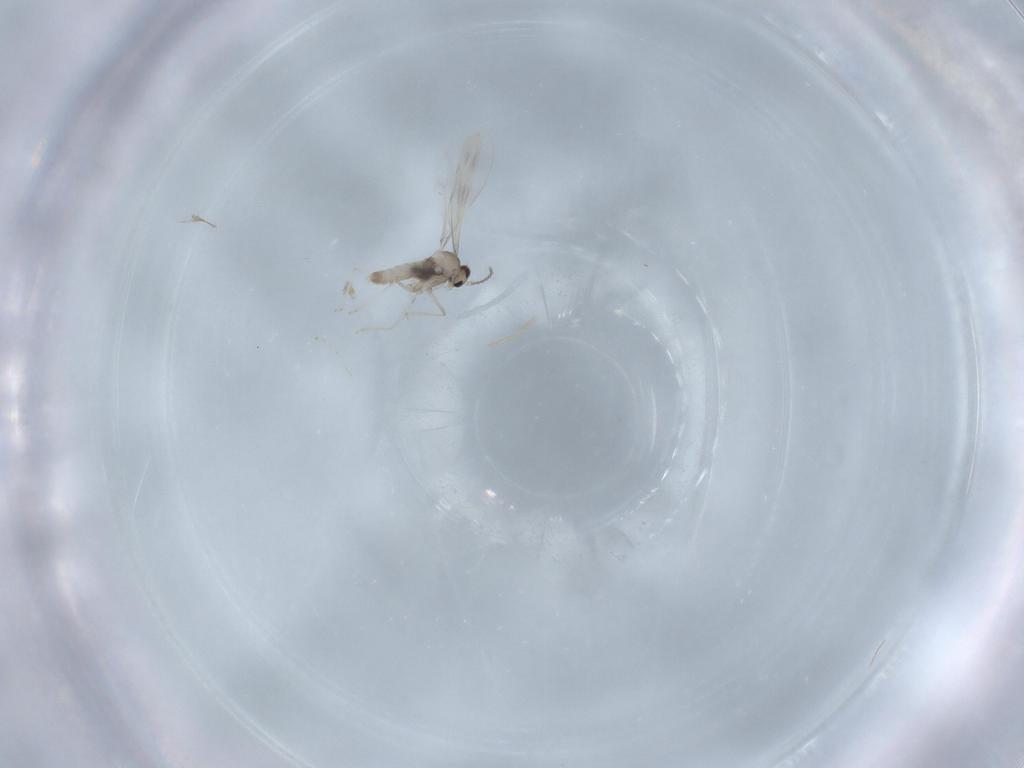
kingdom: Animalia
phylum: Arthropoda
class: Insecta
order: Diptera
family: Cecidomyiidae
